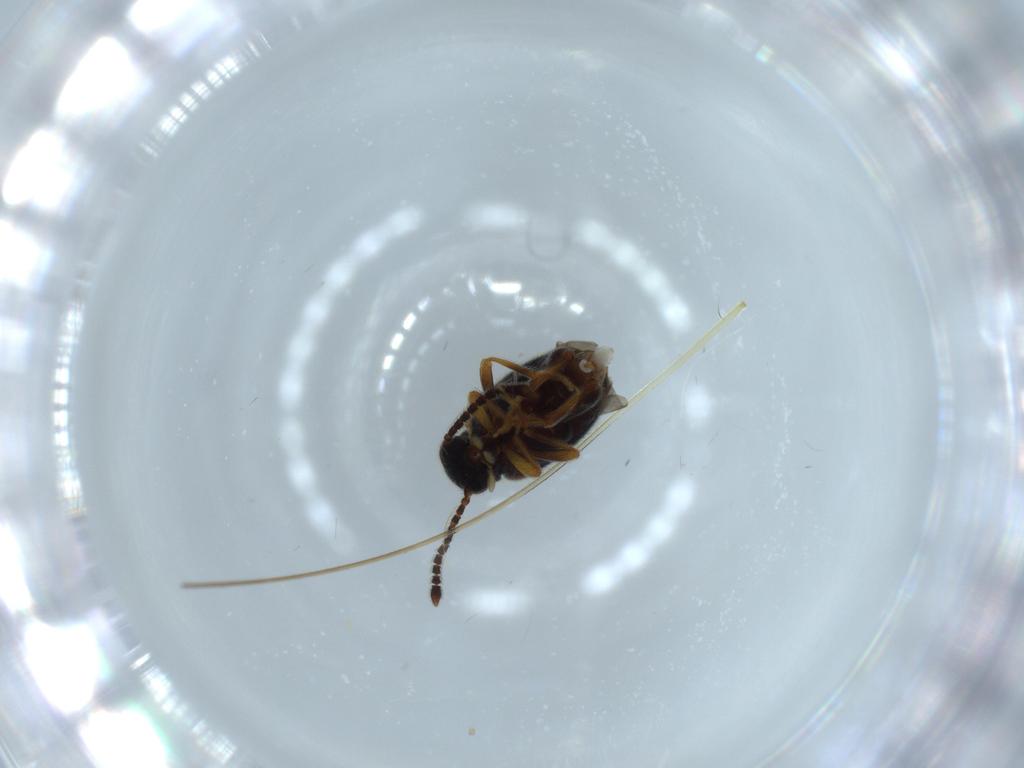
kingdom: Animalia
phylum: Arthropoda
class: Insecta
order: Coleoptera
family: Aderidae
